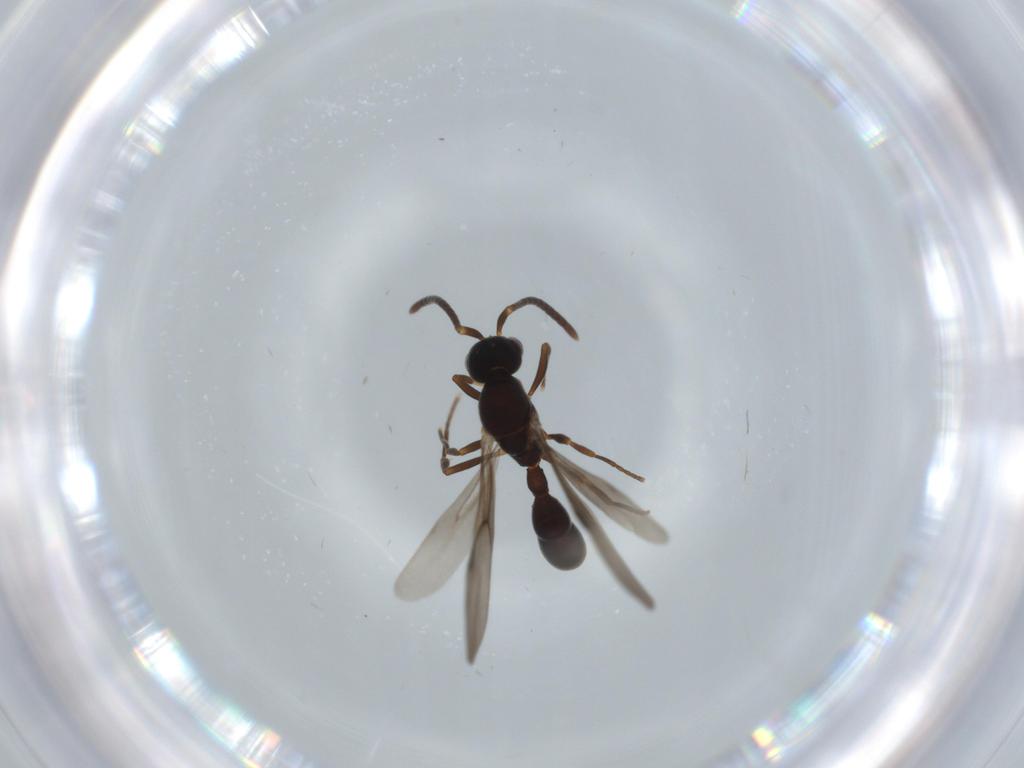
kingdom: Animalia
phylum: Arthropoda
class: Insecta
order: Hymenoptera
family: Formicidae
